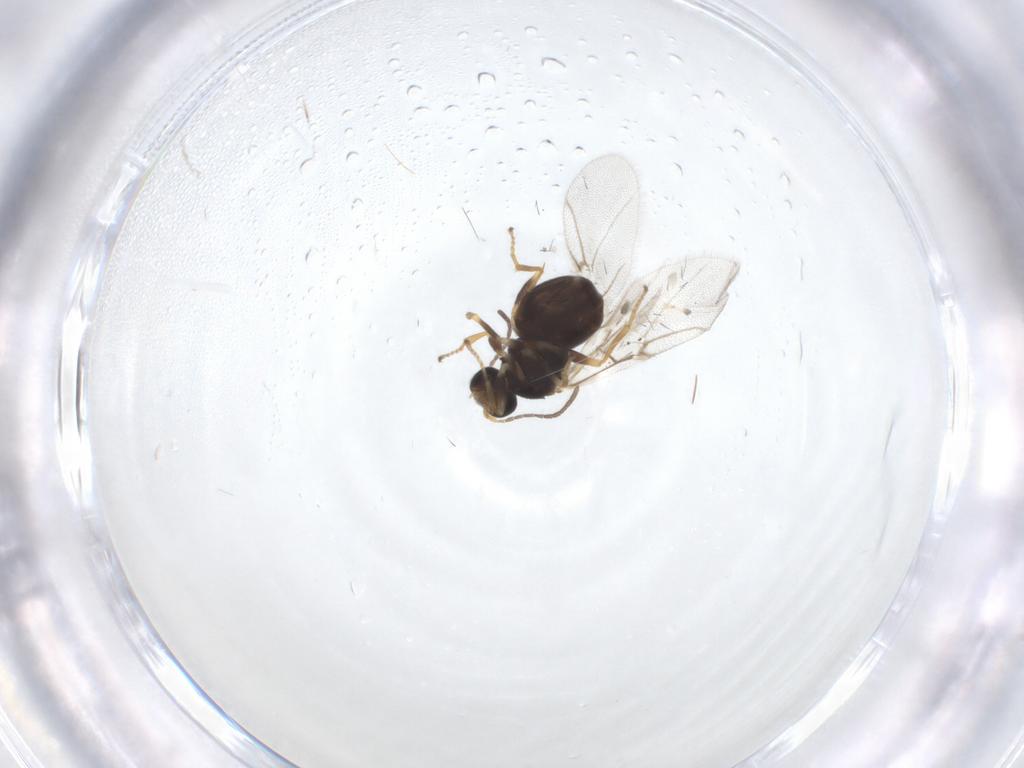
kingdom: Animalia
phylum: Arthropoda
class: Insecta
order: Hymenoptera
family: Cynipidae
